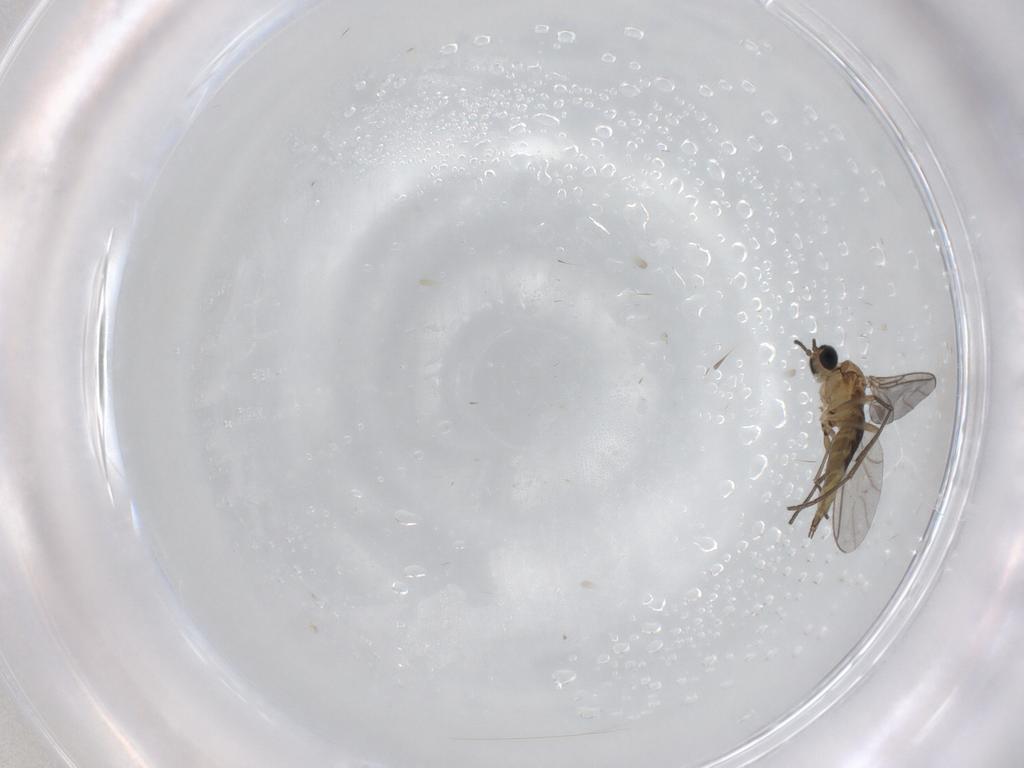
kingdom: Animalia
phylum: Arthropoda
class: Insecta
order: Diptera
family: Sciaridae
